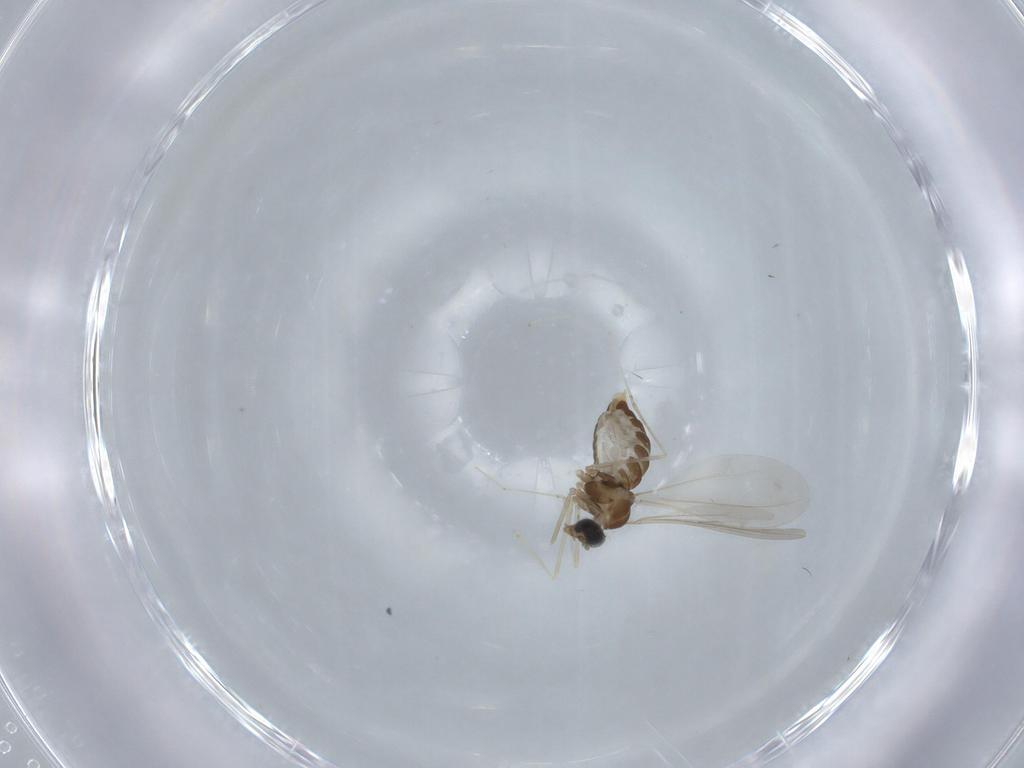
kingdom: Animalia
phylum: Arthropoda
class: Insecta
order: Diptera
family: Cecidomyiidae
